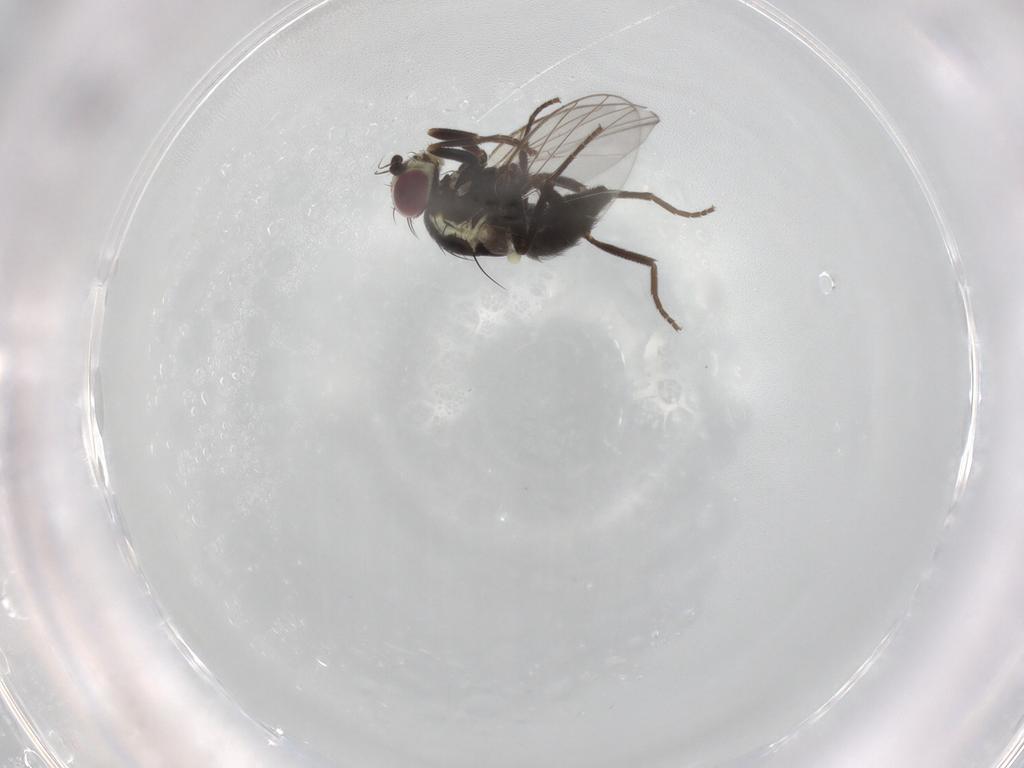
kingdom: Animalia
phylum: Arthropoda
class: Insecta
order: Diptera
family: Agromyzidae
